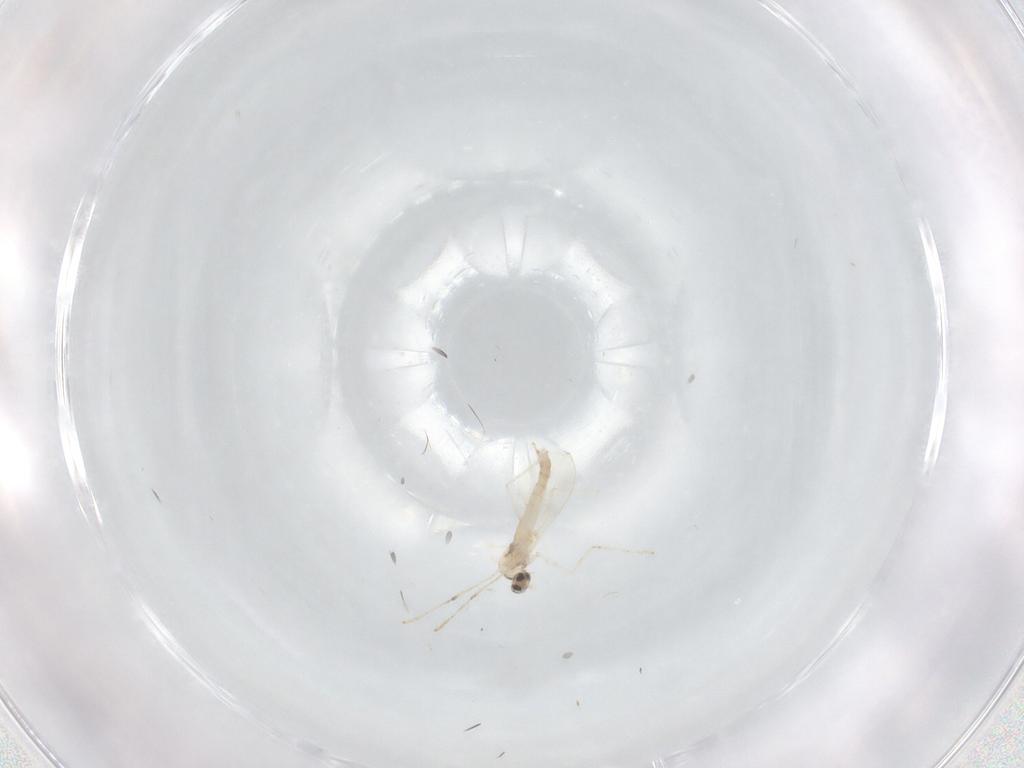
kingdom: Animalia
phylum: Arthropoda
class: Insecta
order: Diptera
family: Cecidomyiidae
